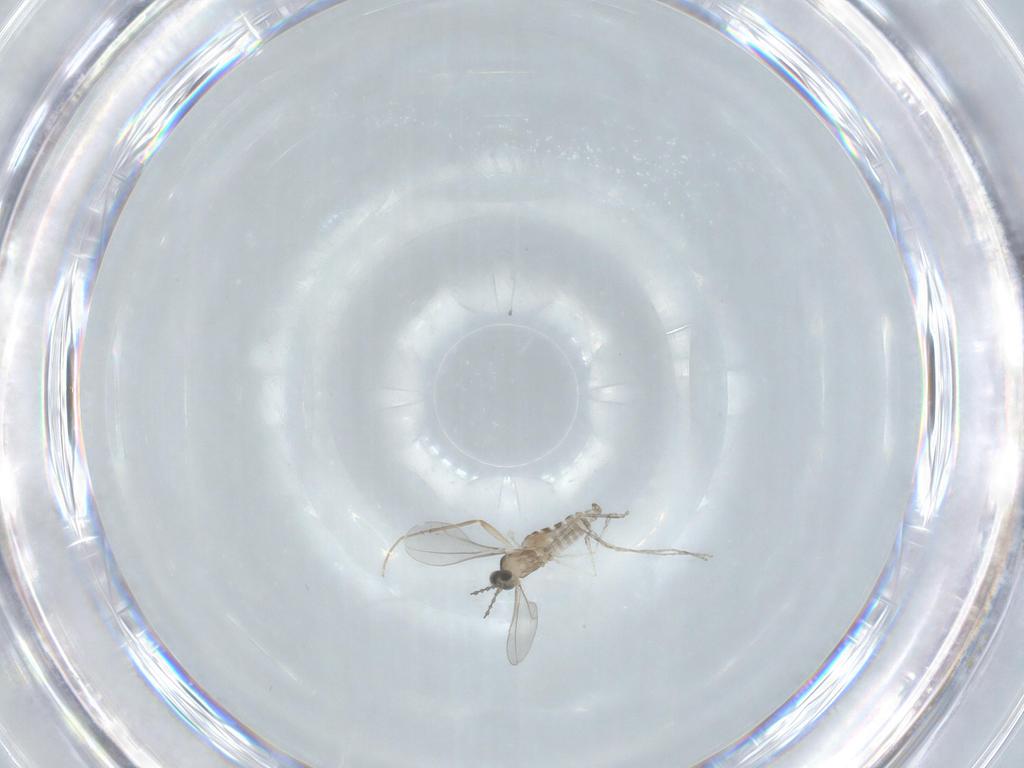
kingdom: Animalia
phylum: Arthropoda
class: Insecta
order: Diptera
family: Cecidomyiidae
